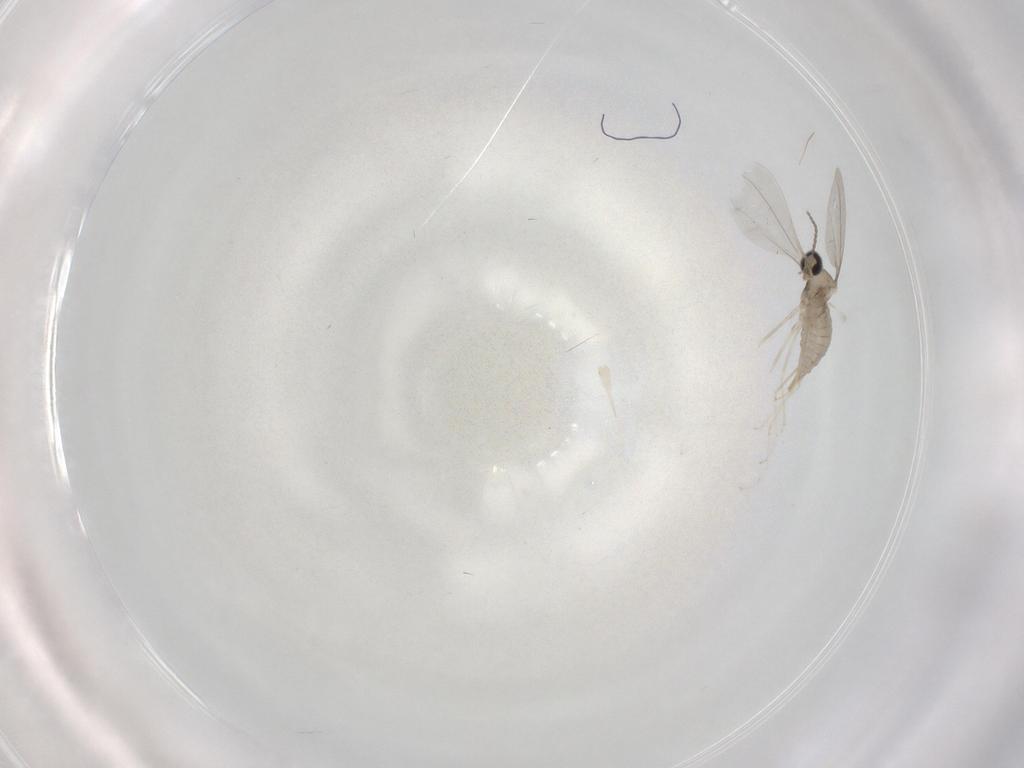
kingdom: Animalia
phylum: Arthropoda
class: Insecta
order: Diptera
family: Cecidomyiidae
